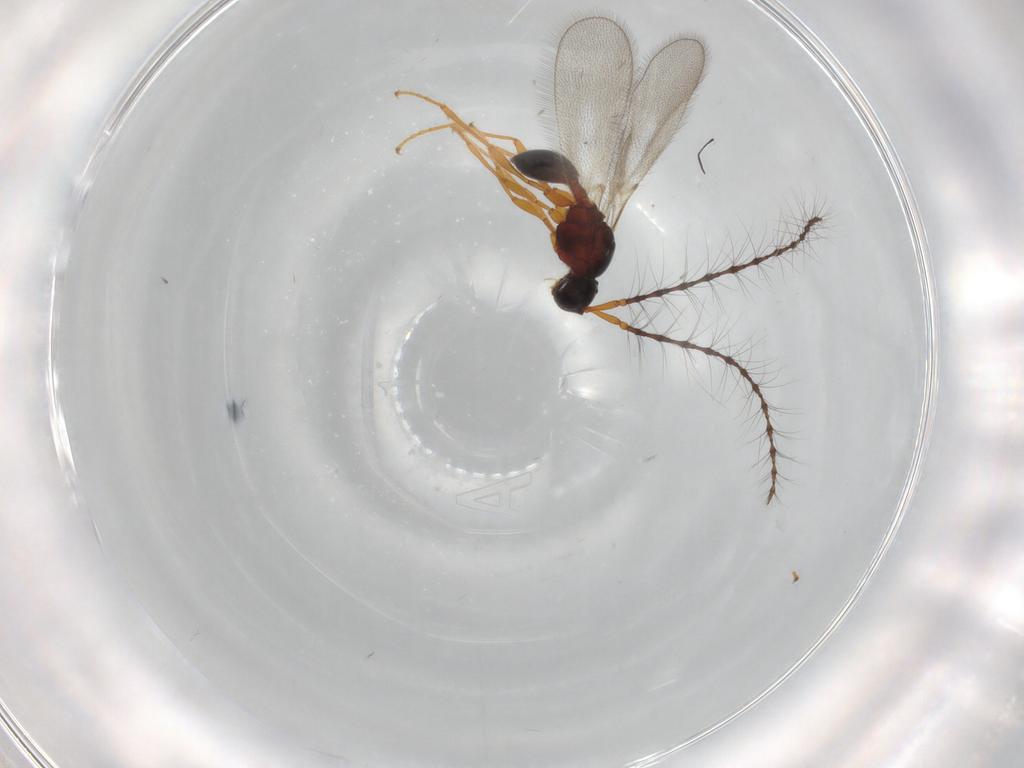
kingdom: Animalia
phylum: Arthropoda
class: Insecta
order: Hymenoptera
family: Diapriidae
